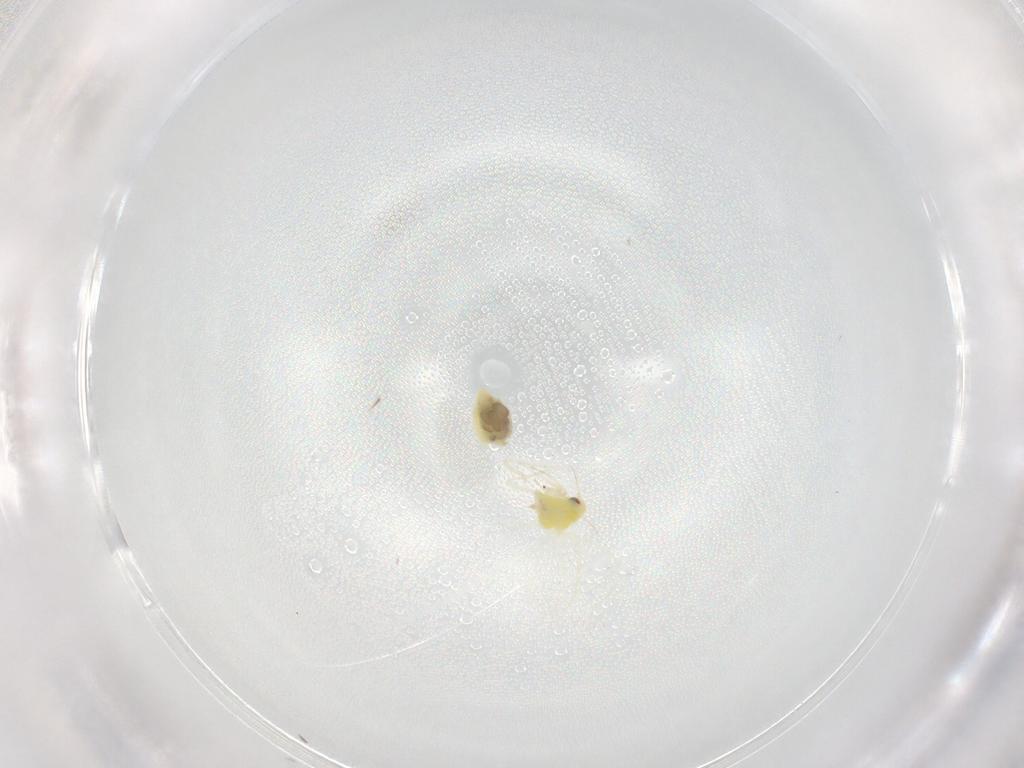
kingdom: Animalia
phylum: Arthropoda
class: Insecta
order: Hemiptera
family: Aleyrodidae
